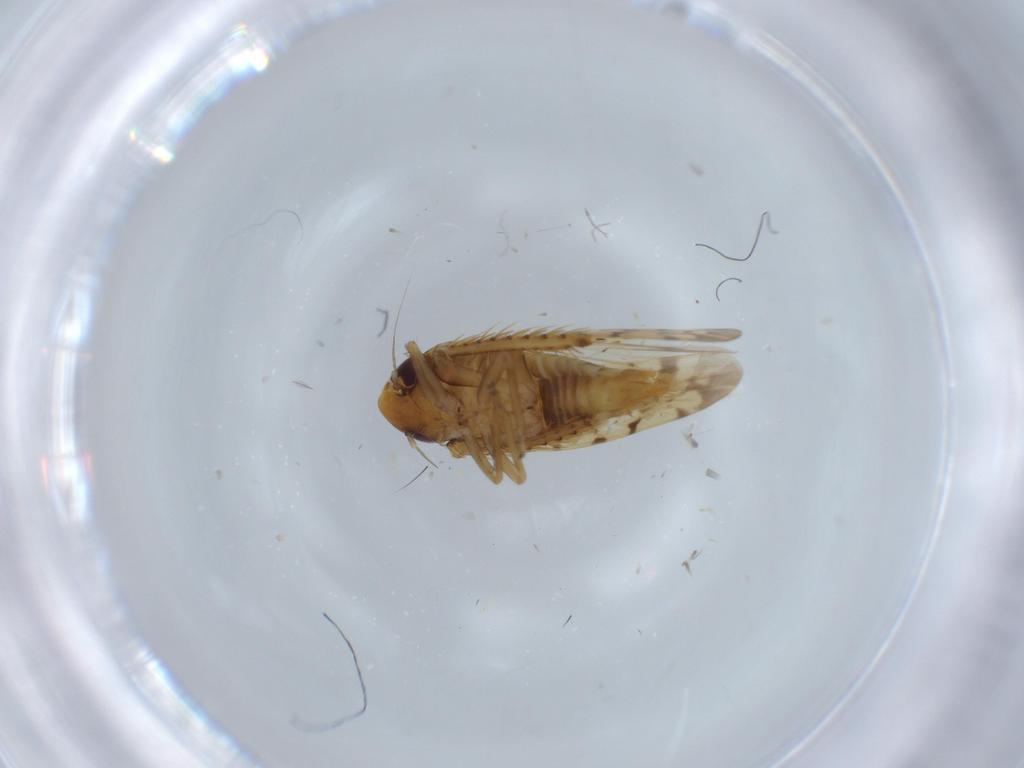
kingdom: Animalia
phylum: Arthropoda
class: Insecta
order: Hemiptera
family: Cicadellidae
